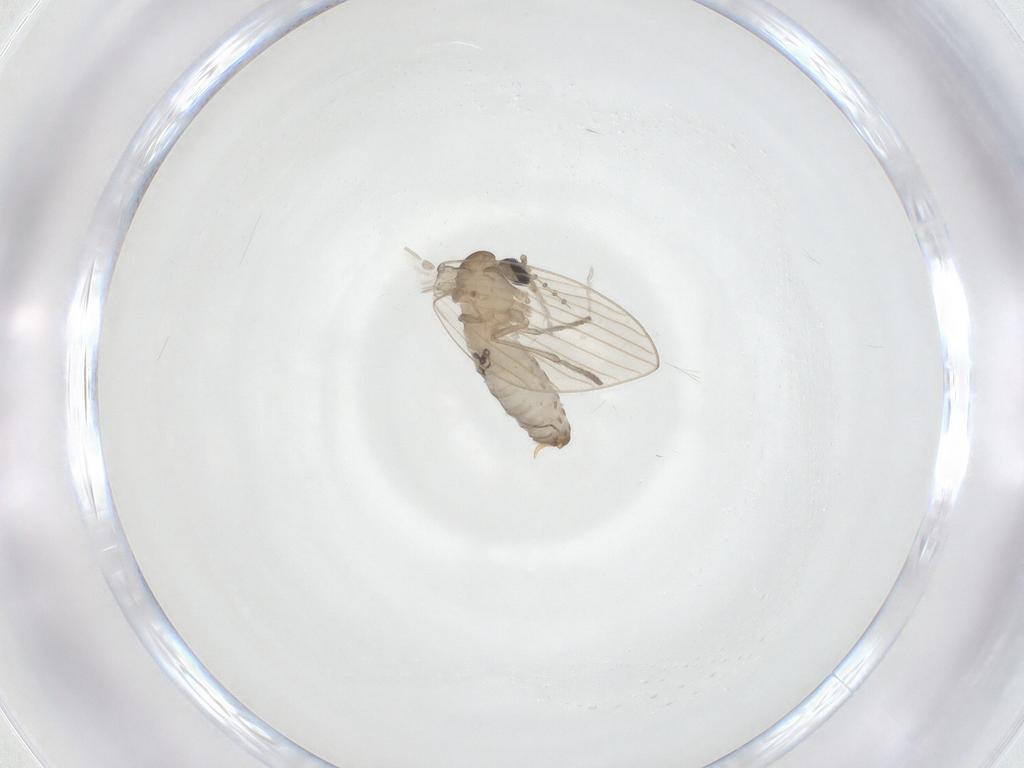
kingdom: Animalia
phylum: Arthropoda
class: Insecta
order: Diptera
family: Psychodidae
